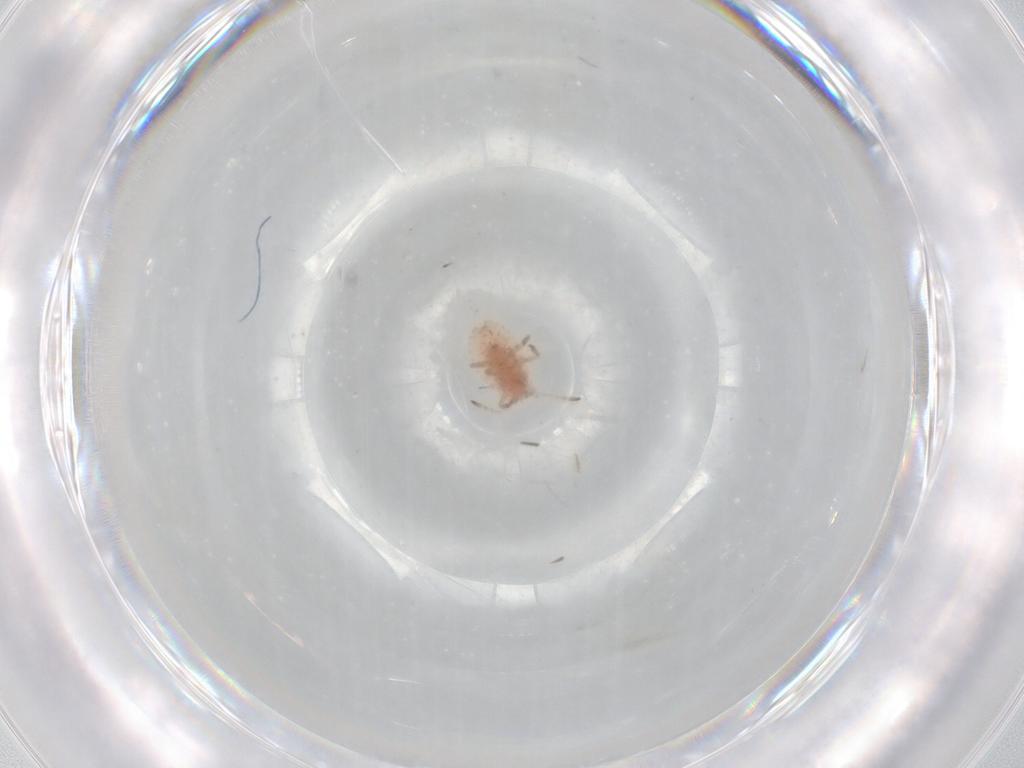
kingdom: Animalia
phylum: Arthropoda
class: Insecta
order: Hemiptera
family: Coccoidea_incertae_sedis
